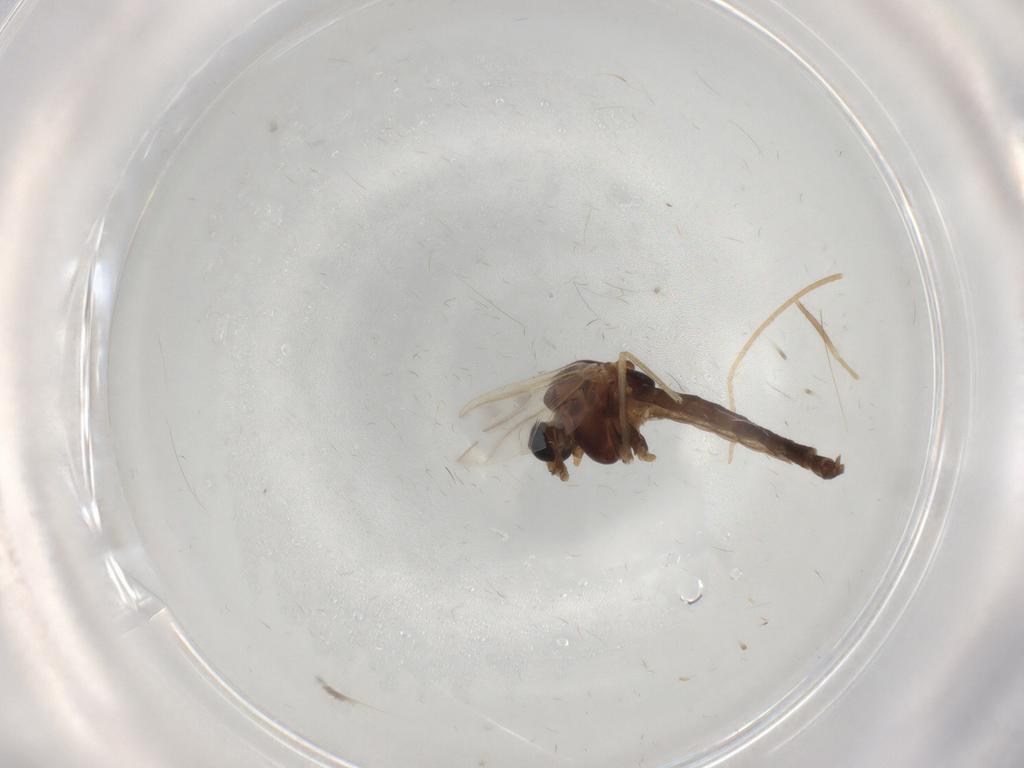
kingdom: Animalia
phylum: Arthropoda
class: Insecta
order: Diptera
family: Chironomidae
